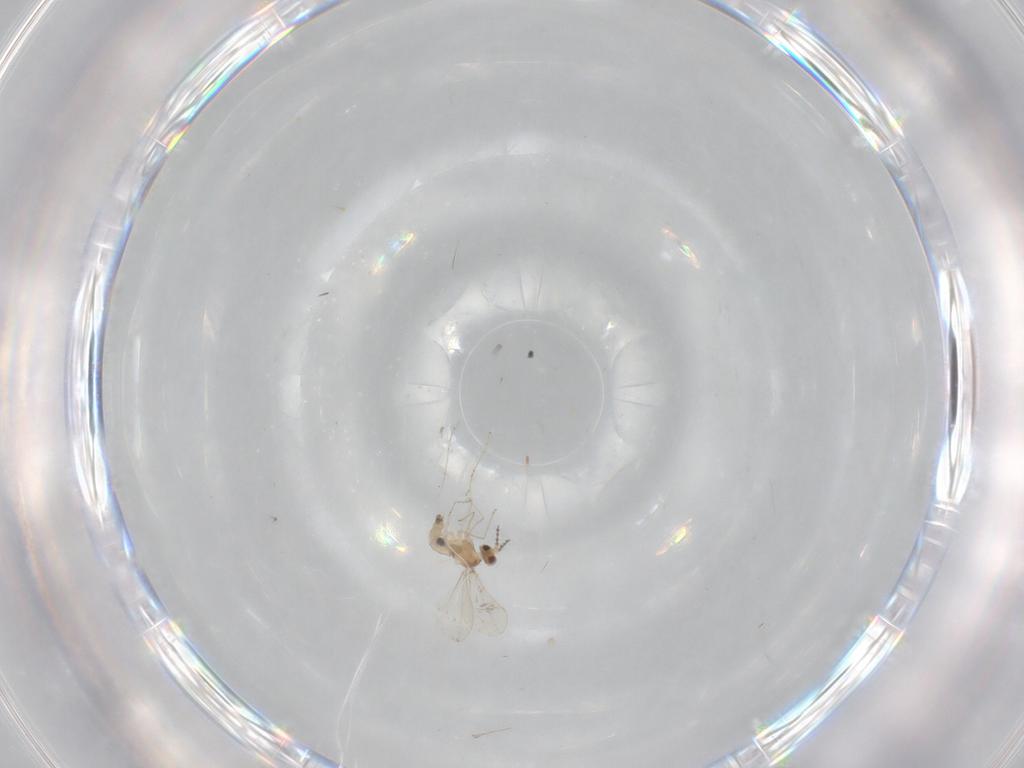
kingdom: Animalia
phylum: Arthropoda
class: Insecta
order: Diptera
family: Cecidomyiidae
